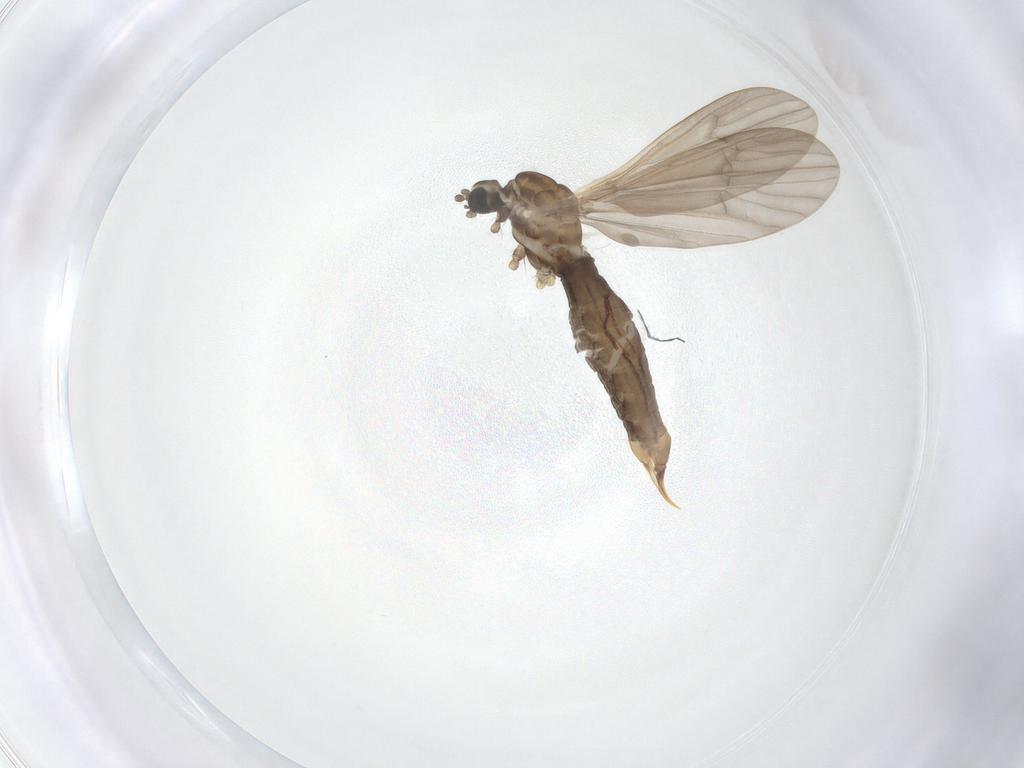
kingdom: Animalia
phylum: Arthropoda
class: Insecta
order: Diptera
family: Limoniidae
